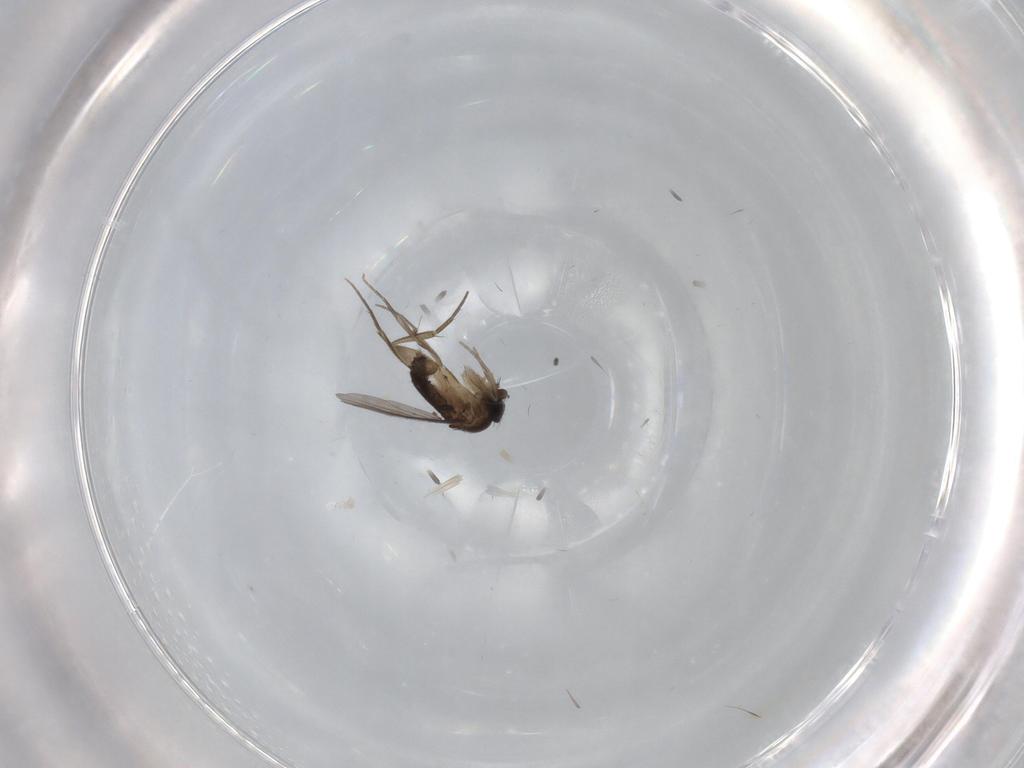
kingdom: Animalia
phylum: Arthropoda
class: Insecta
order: Diptera
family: Phoridae
